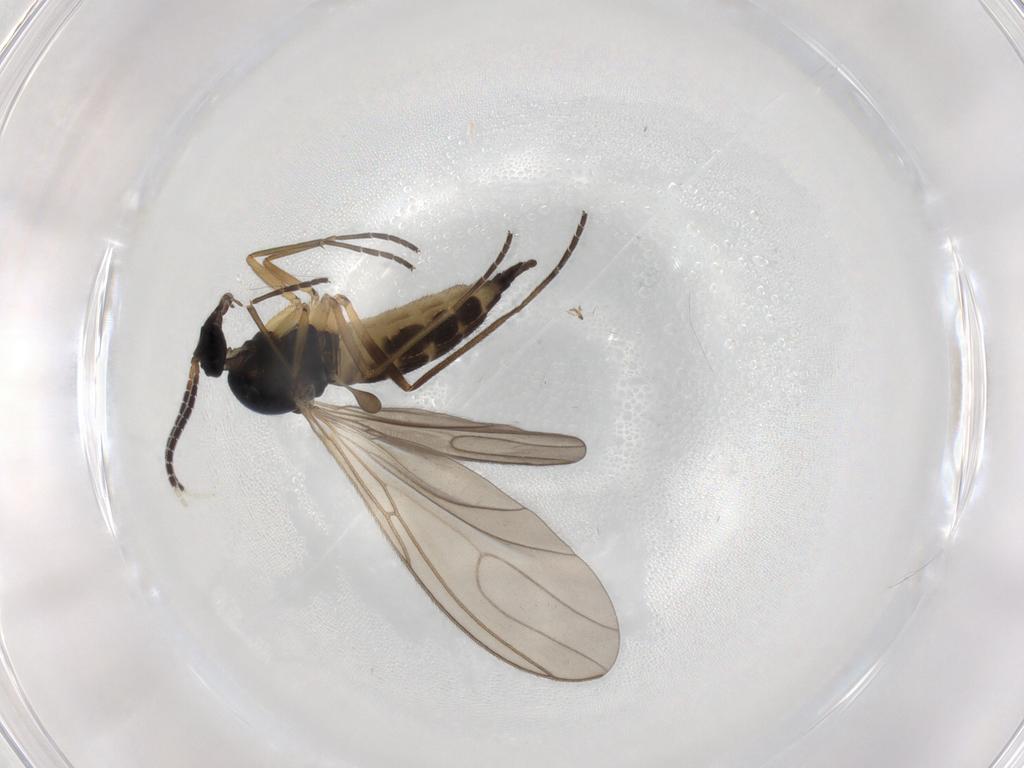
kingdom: Animalia
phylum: Arthropoda
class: Insecta
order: Diptera
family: Sciaridae
